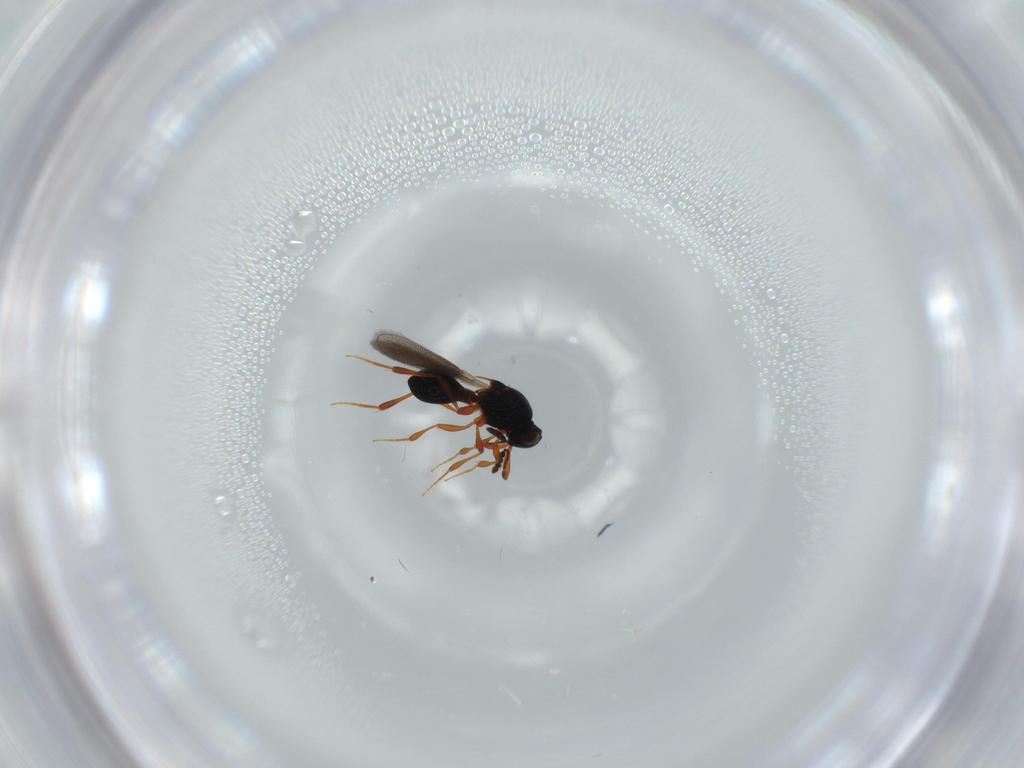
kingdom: Animalia
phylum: Arthropoda
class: Insecta
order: Hymenoptera
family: Platygastridae
